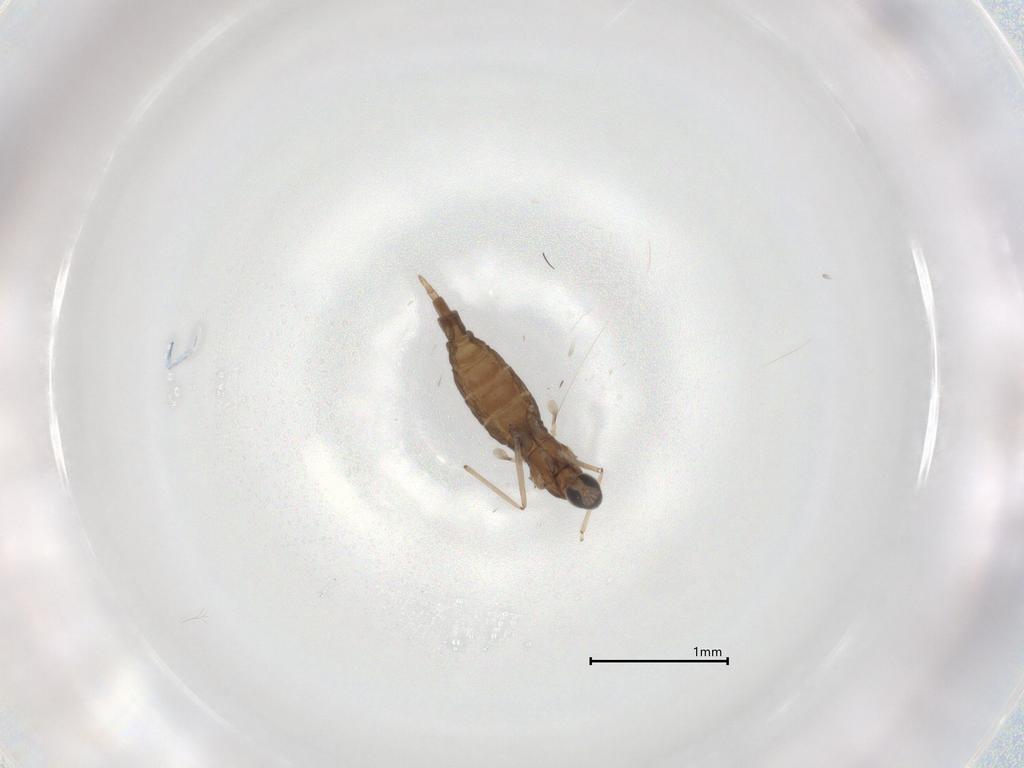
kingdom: Animalia
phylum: Arthropoda
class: Insecta
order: Diptera
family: Cecidomyiidae
